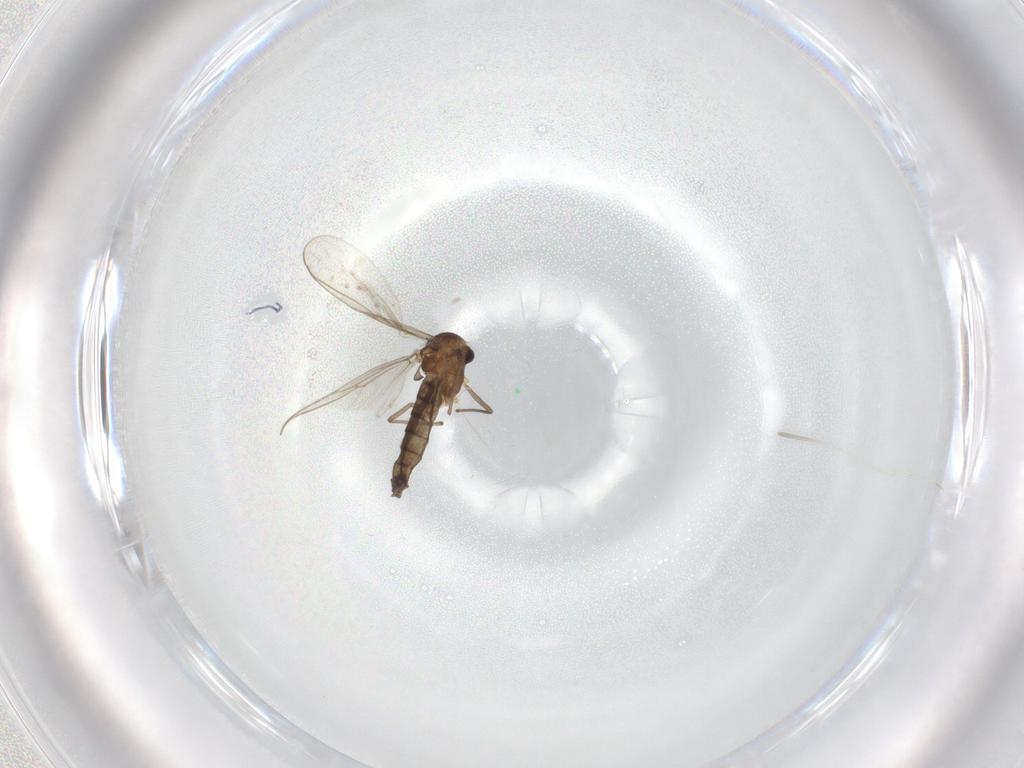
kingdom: Animalia
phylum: Arthropoda
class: Insecta
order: Diptera
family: Chironomidae
